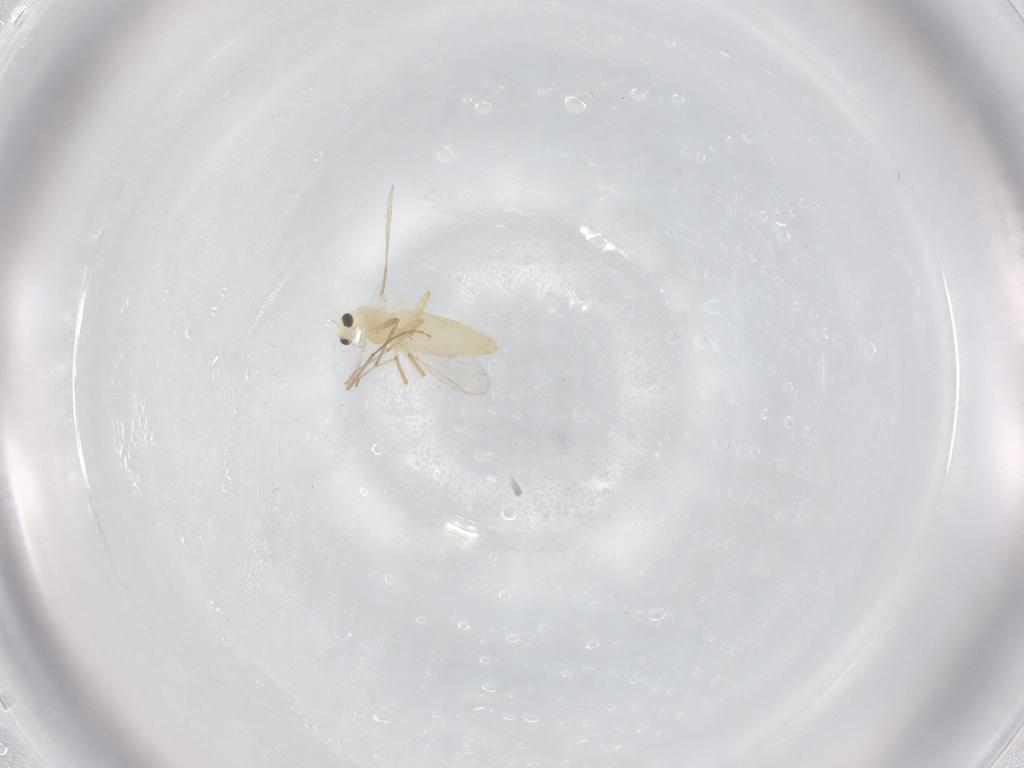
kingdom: Animalia
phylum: Arthropoda
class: Insecta
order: Diptera
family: Chironomidae
